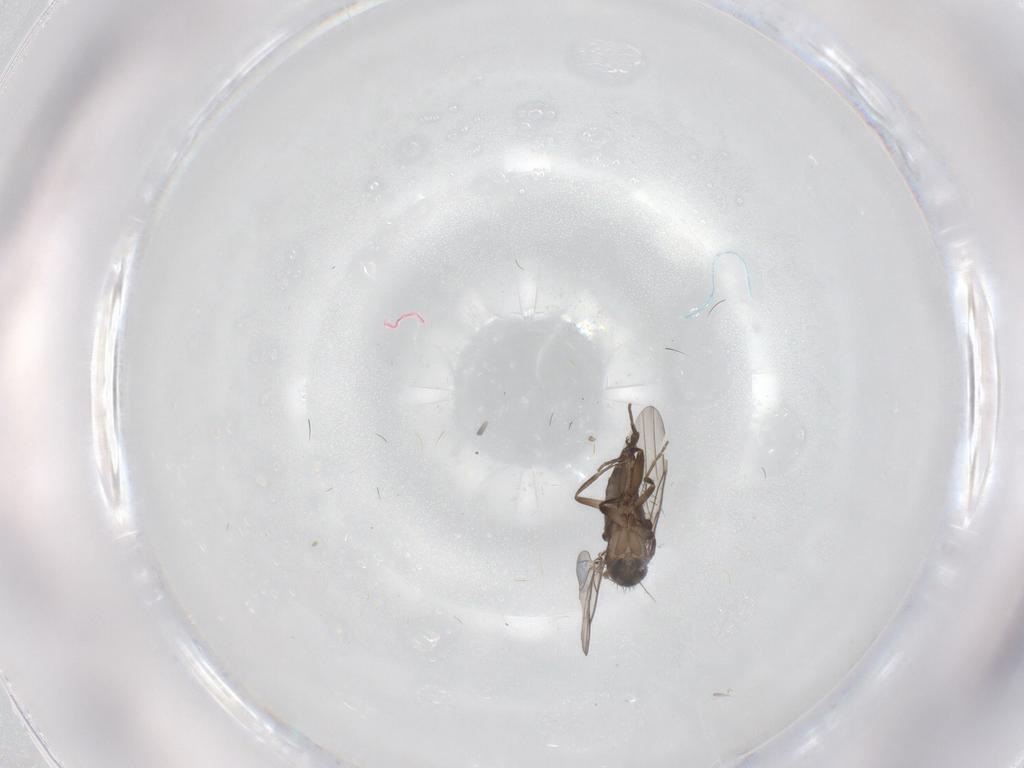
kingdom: Animalia
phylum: Arthropoda
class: Insecta
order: Diptera
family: Phoridae
